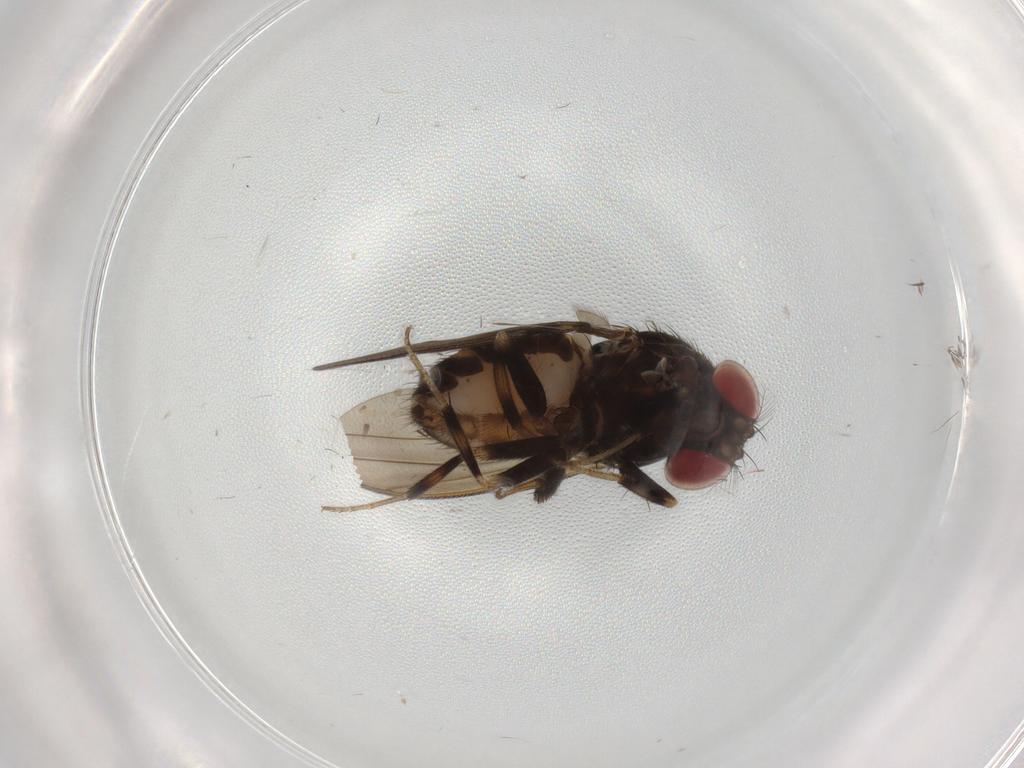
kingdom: Animalia
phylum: Arthropoda
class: Insecta
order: Diptera
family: Drosophilidae
